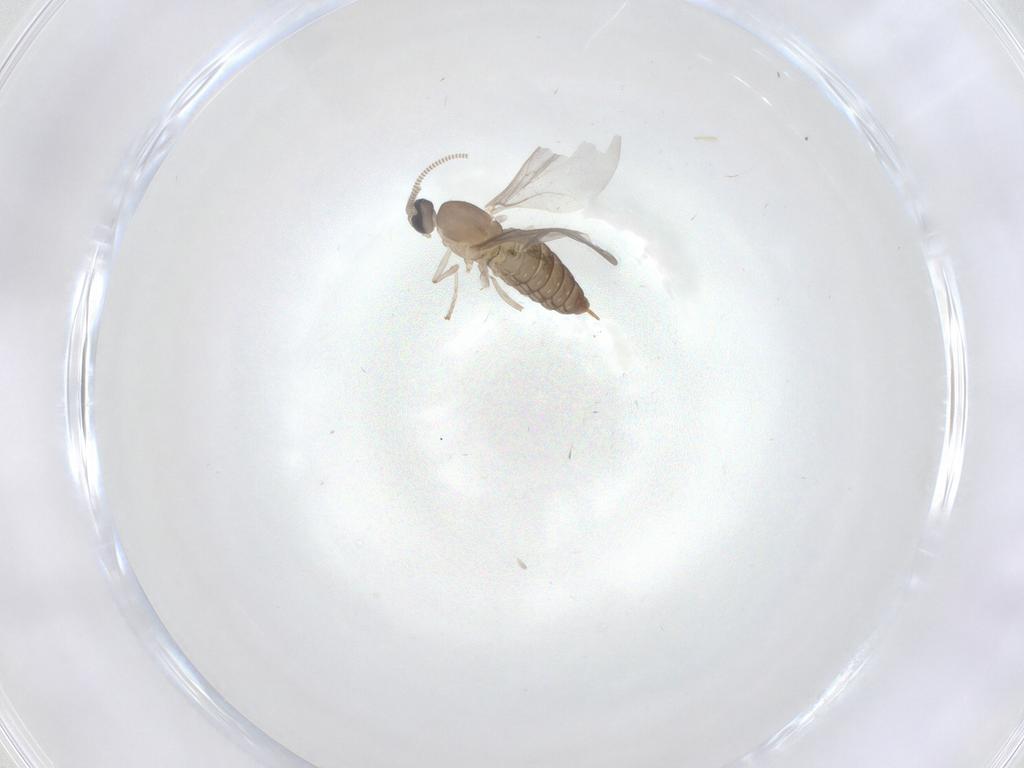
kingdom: Animalia
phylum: Arthropoda
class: Insecta
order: Diptera
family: Cecidomyiidae
